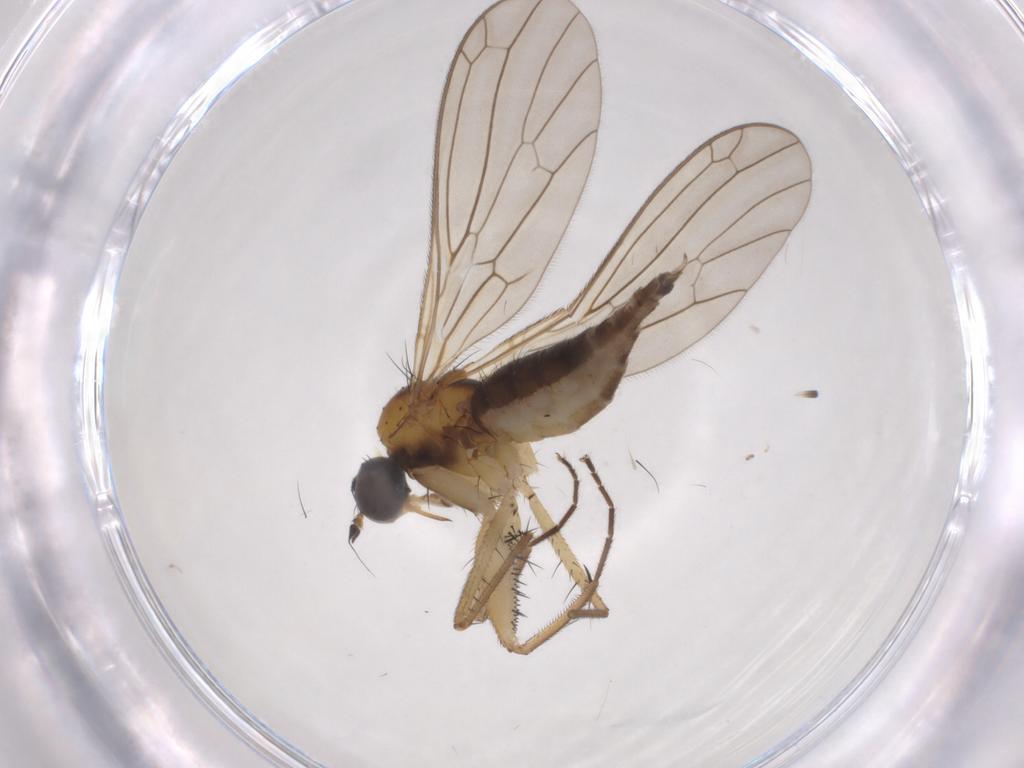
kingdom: Animalia
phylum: Arthropoda
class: Insecta
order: Diptera
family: Empididae
